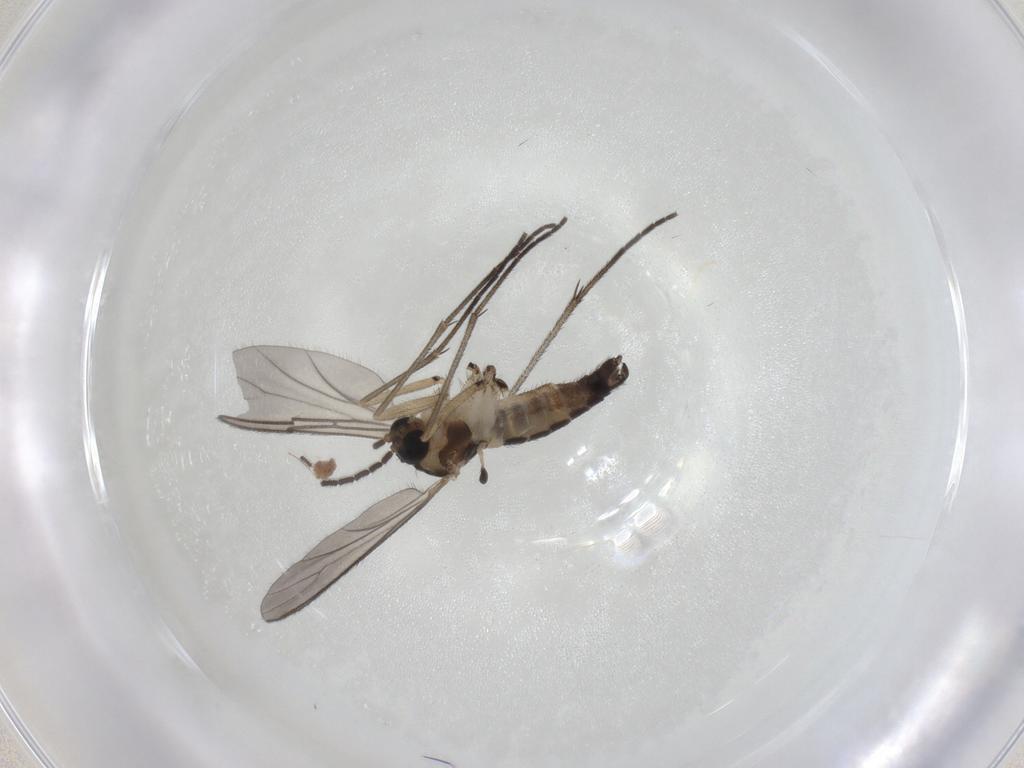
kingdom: Animalia
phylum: Arthropoda
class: Insecta
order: Diptera
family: Sciaridae
